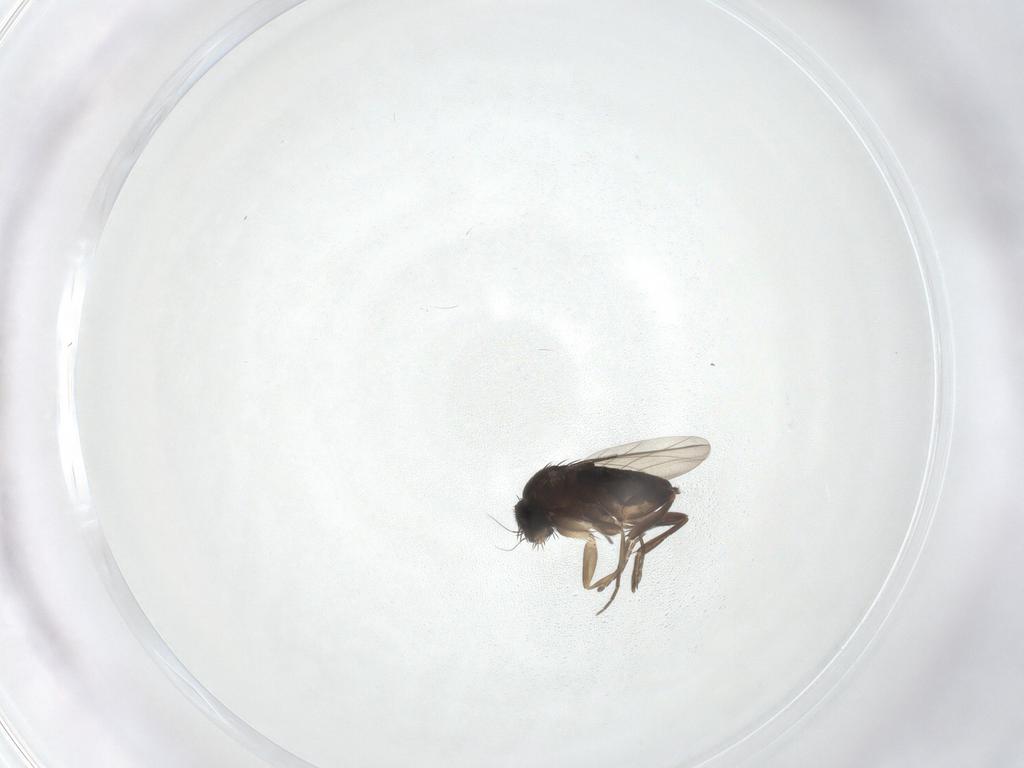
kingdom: Animalia
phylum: Arthropoda
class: Insecta
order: Diptera
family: Phoridae
